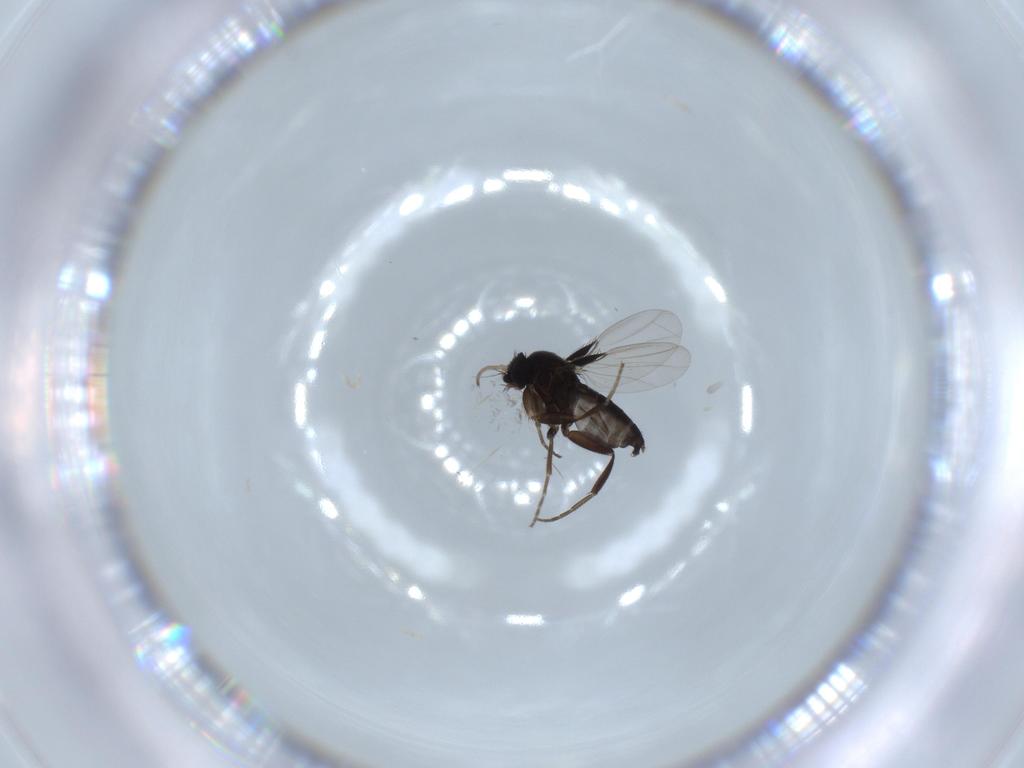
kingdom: Animalia
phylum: Arthropoda
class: Insecta
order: Diptera
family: Phoridae
